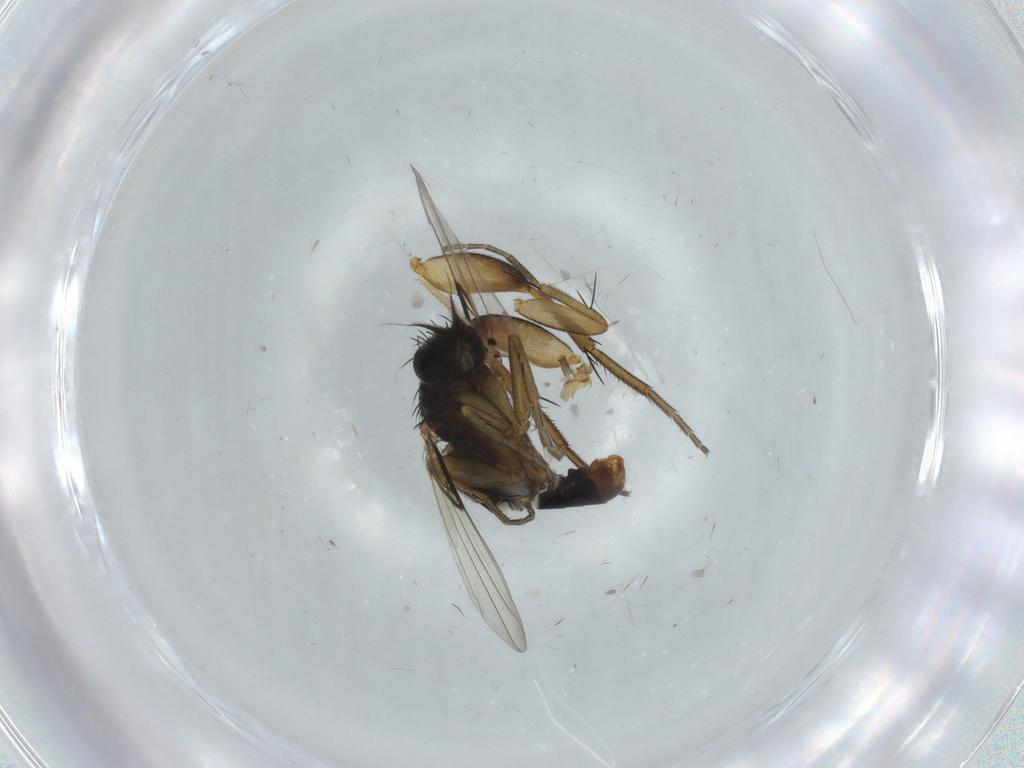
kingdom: Animalia
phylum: Arthropoda
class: Insecta
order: Diptera
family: Phoridae
